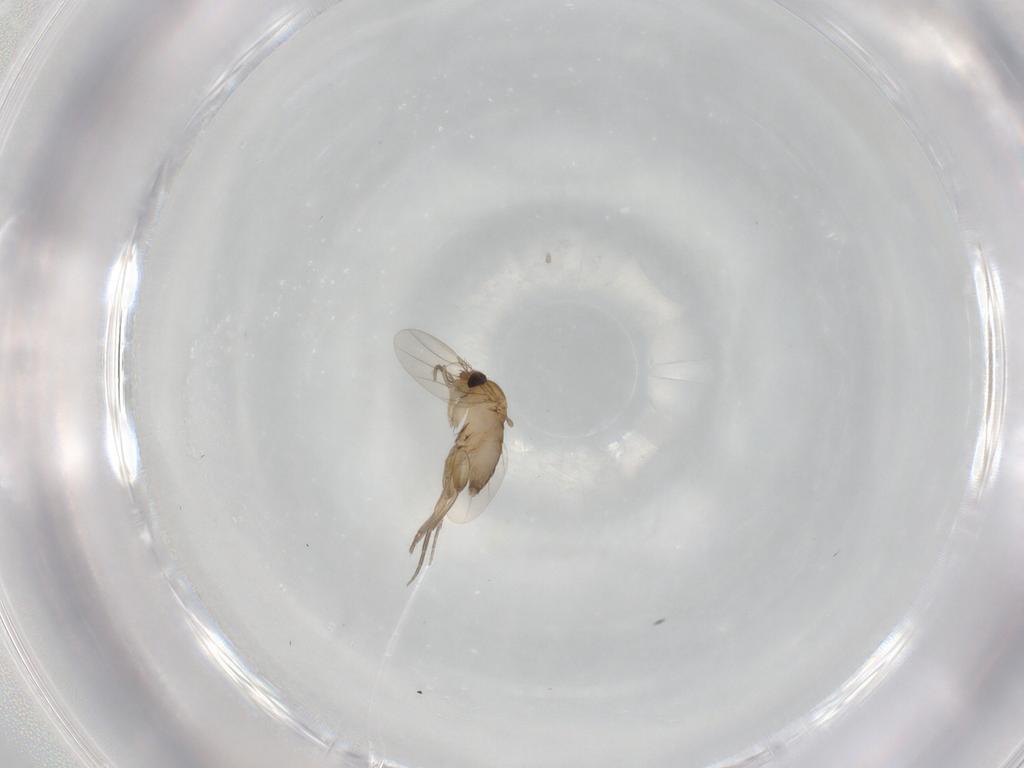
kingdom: Animalia
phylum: Arthropoda
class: Insecta
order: Diptera
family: Phoridae
